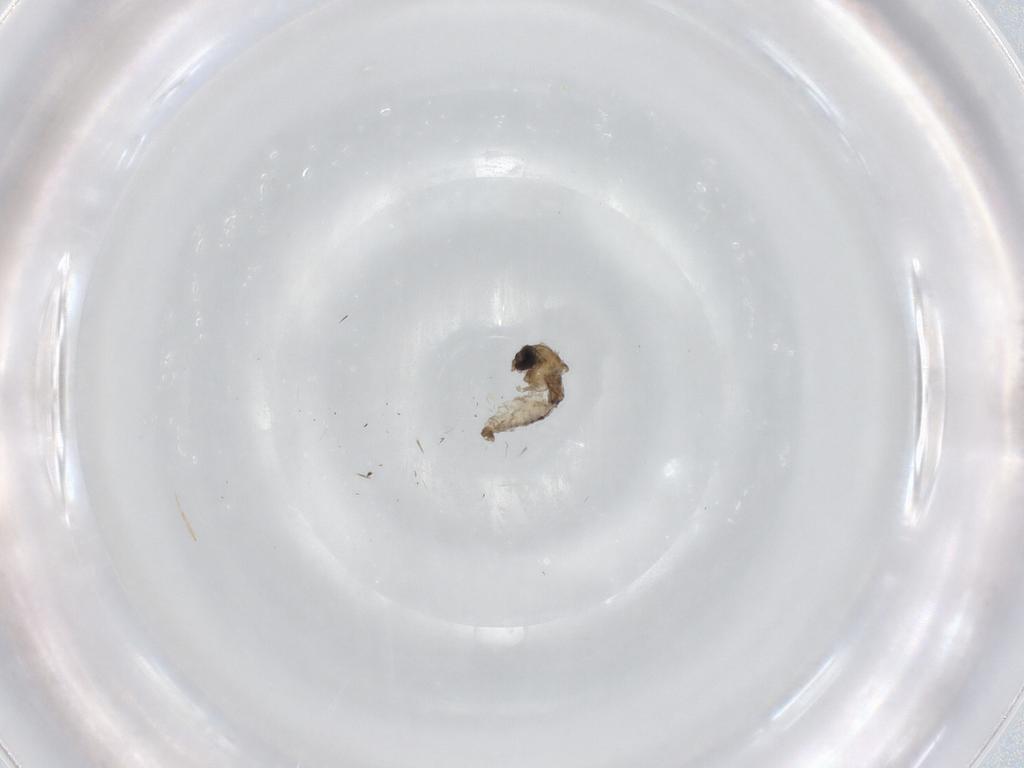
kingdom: Animalia
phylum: Arthropoda
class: Insecta
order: Diptera
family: Psychodidae
